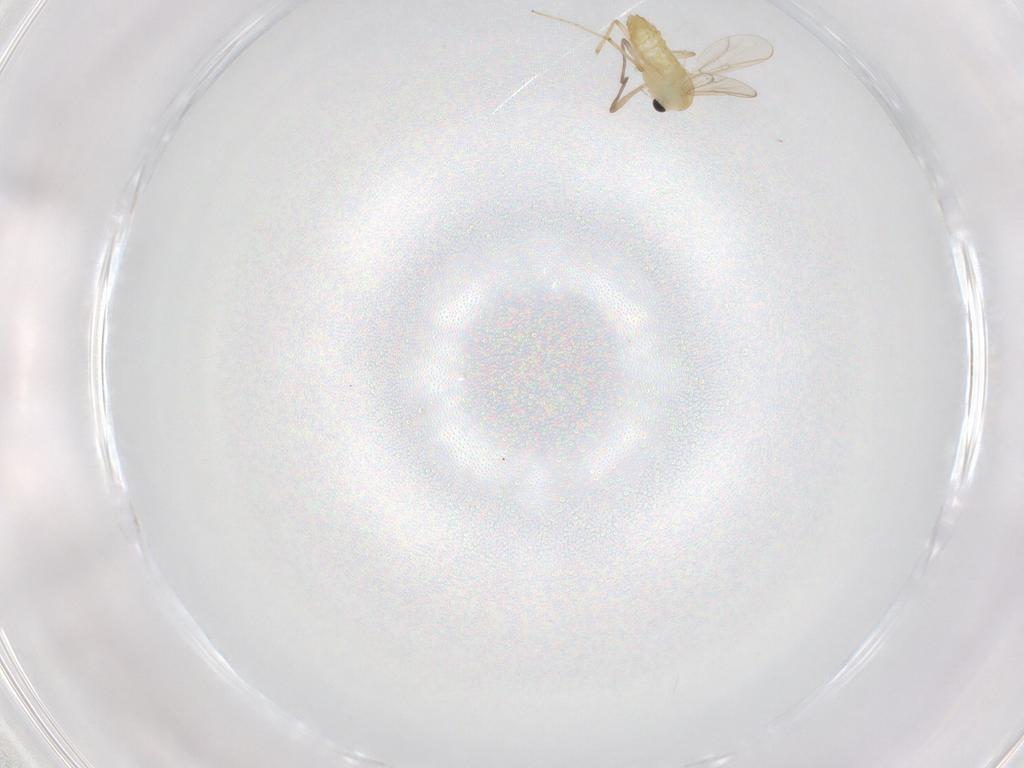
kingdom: Animalia
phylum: Arthropoda
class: Insecta
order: Diptera
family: Chironomidae
